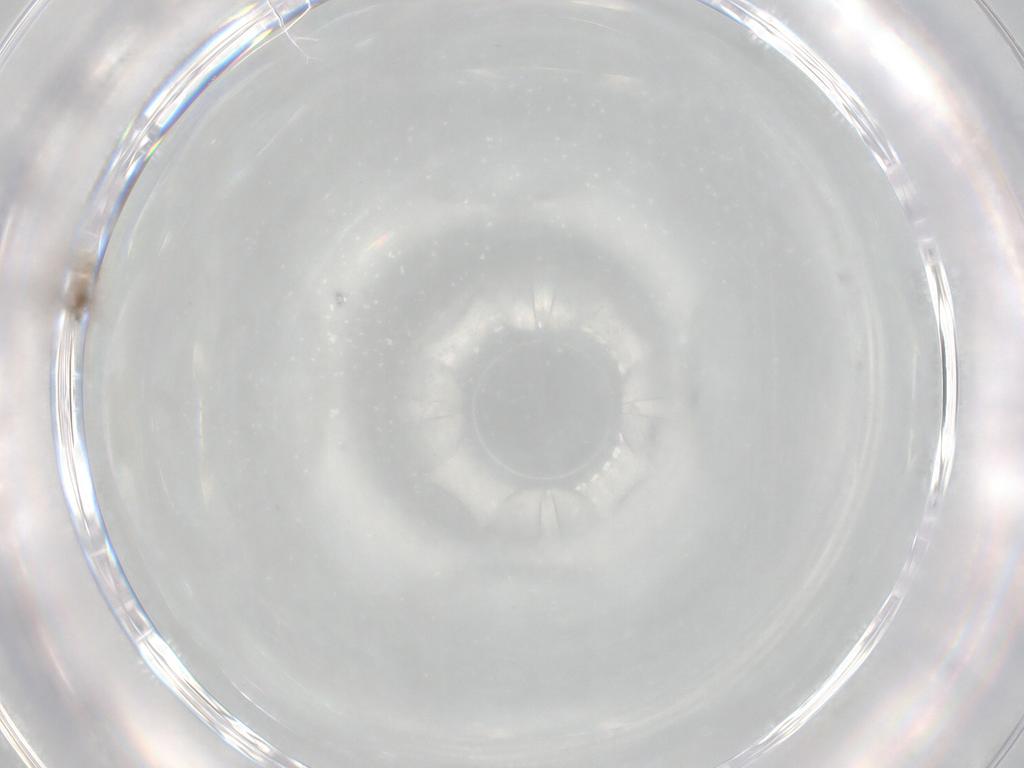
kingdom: Animalia
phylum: Arthropoda
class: Insecta
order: Diptera
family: Cecidomyiidae
